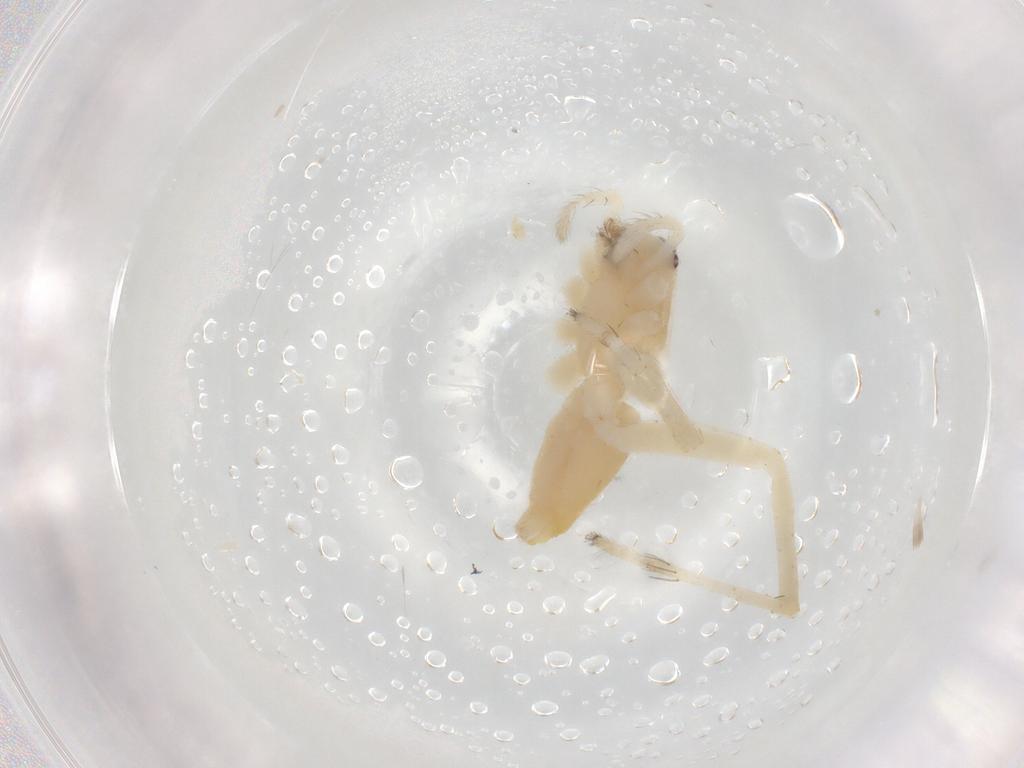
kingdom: Animalia
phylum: Arthropoda
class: Arachnida
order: Araneae
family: Anyphaenidae
